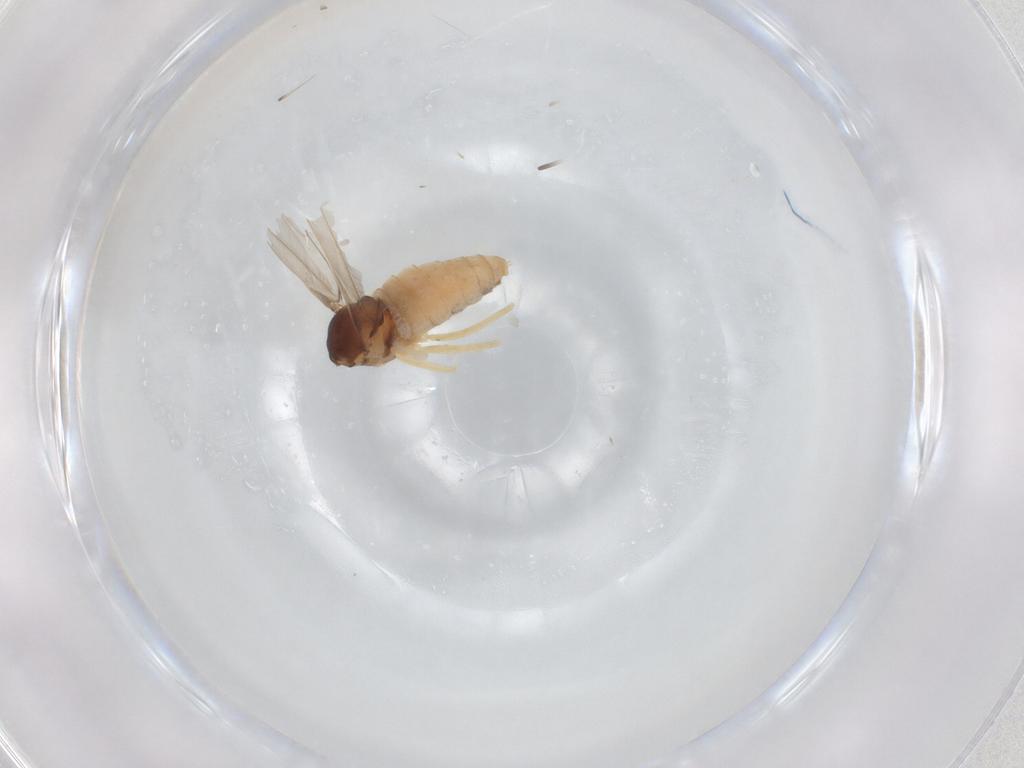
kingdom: Animalia
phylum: Arthropoda
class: Insecta
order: Diptera
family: Cecidomyiidae
